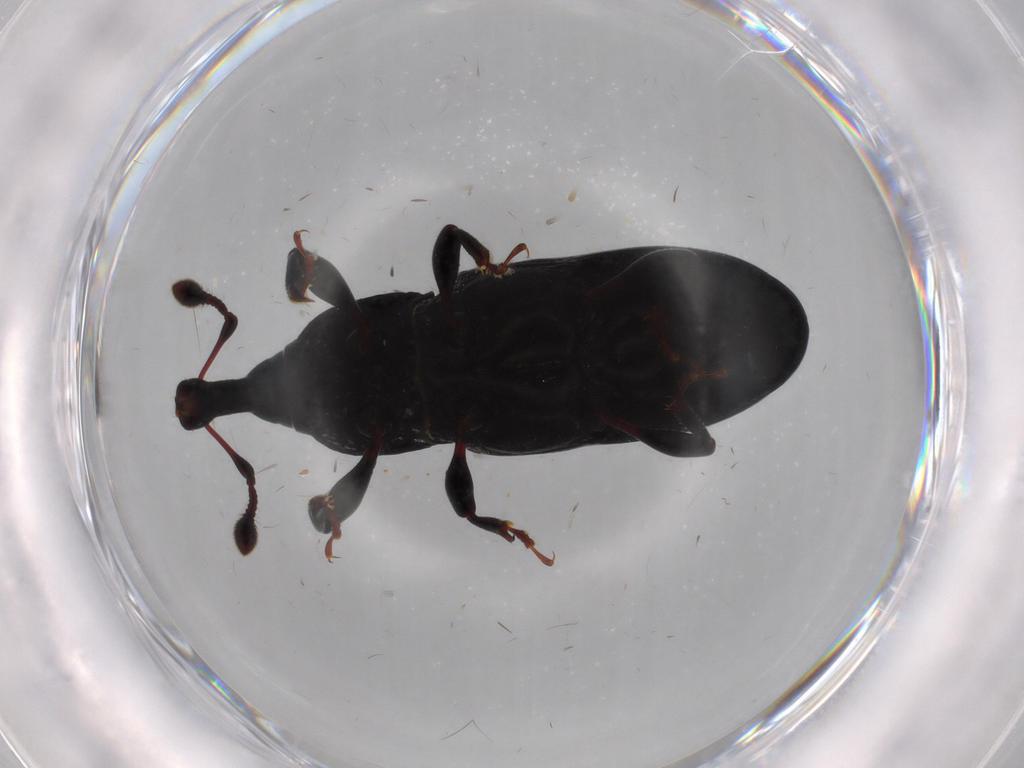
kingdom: Animalia
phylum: Arthropoda
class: Insecta
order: Coleoptera
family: Curculionidae
